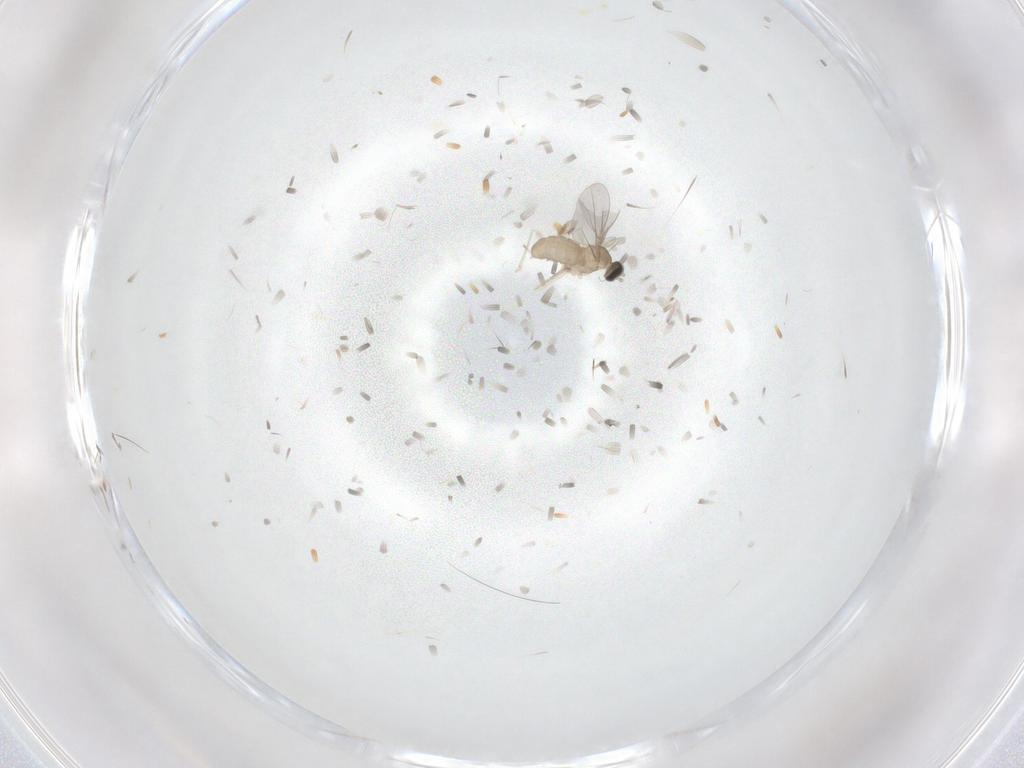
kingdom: Animalia
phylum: Arthropoda
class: Insecta
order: Diptera
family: Cecidomyiidae
